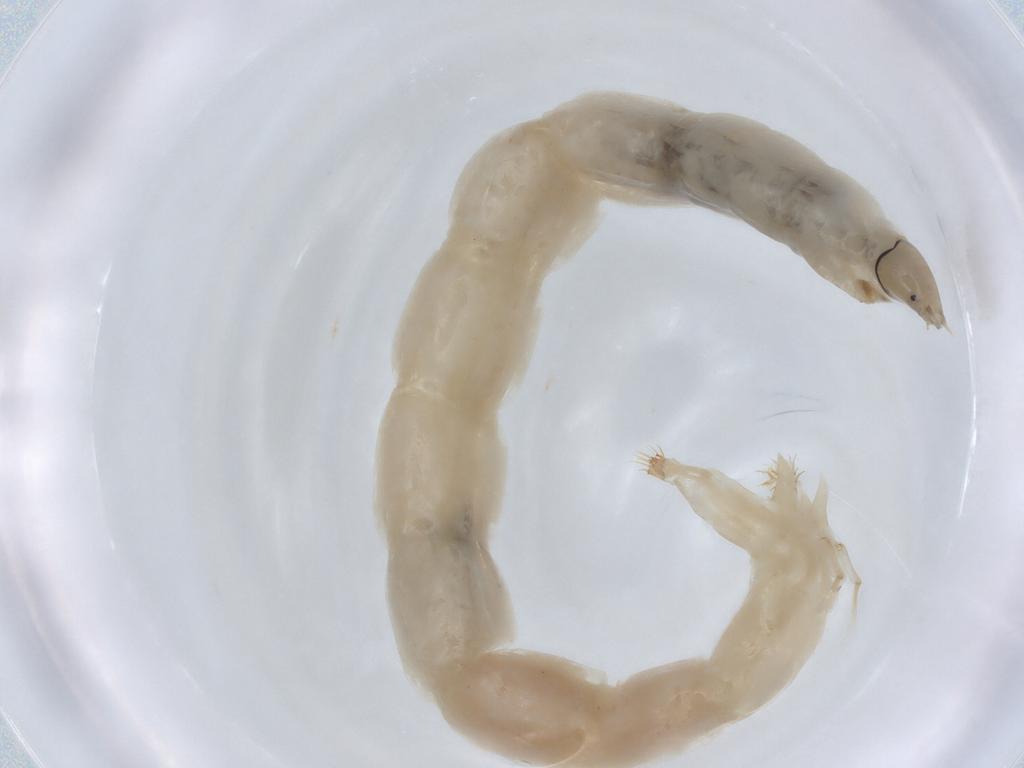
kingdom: Animalia
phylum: Arthropoda
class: Insecta
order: Diptera
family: Chironomidae
